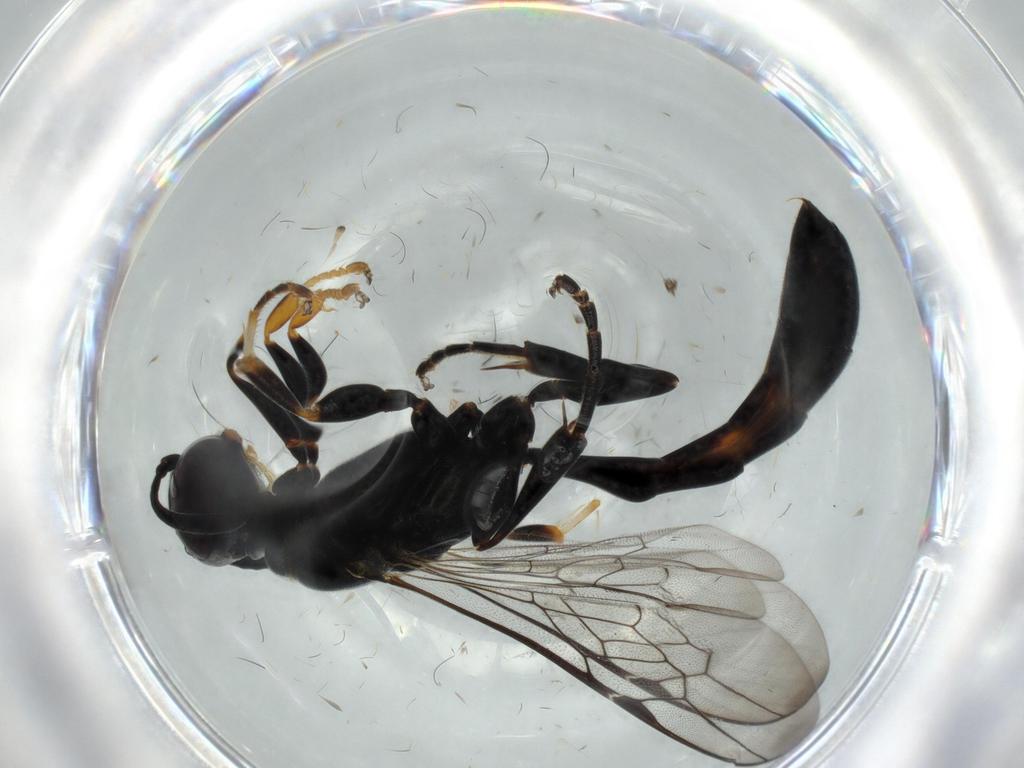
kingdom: Animalia
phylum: Arthropoda
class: Insecta
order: Hymenoptera
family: Crabronidae
